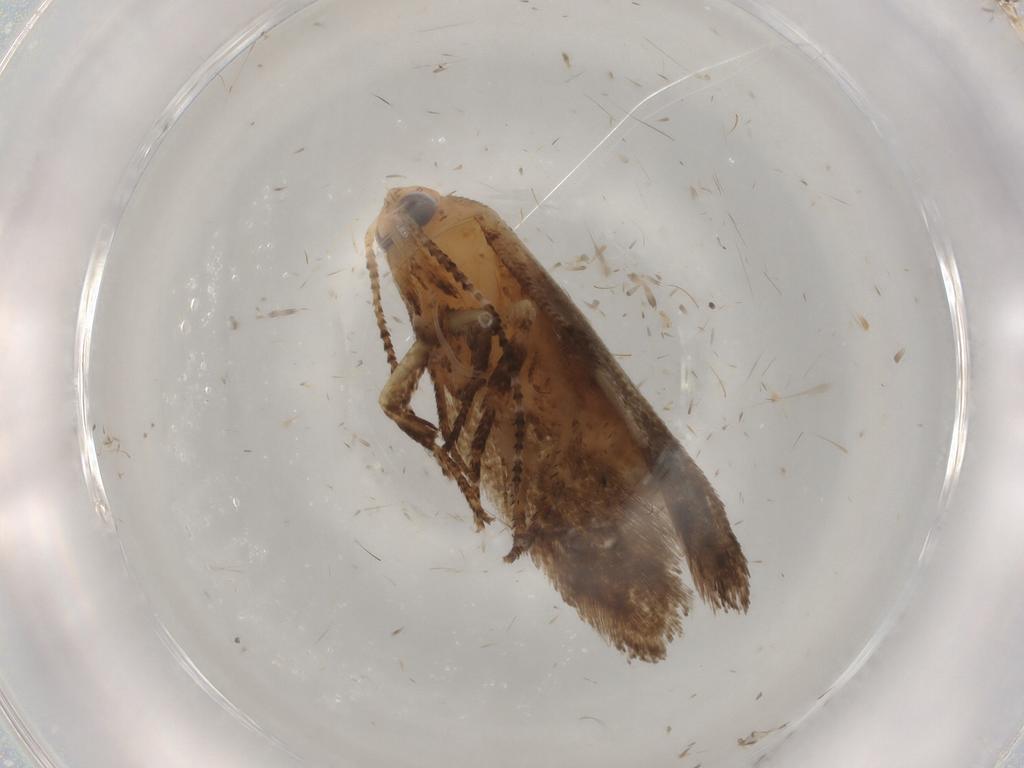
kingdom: Animalia
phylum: Arthropoda
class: Insecta
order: Lepidoptera
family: Ypsolophidae
